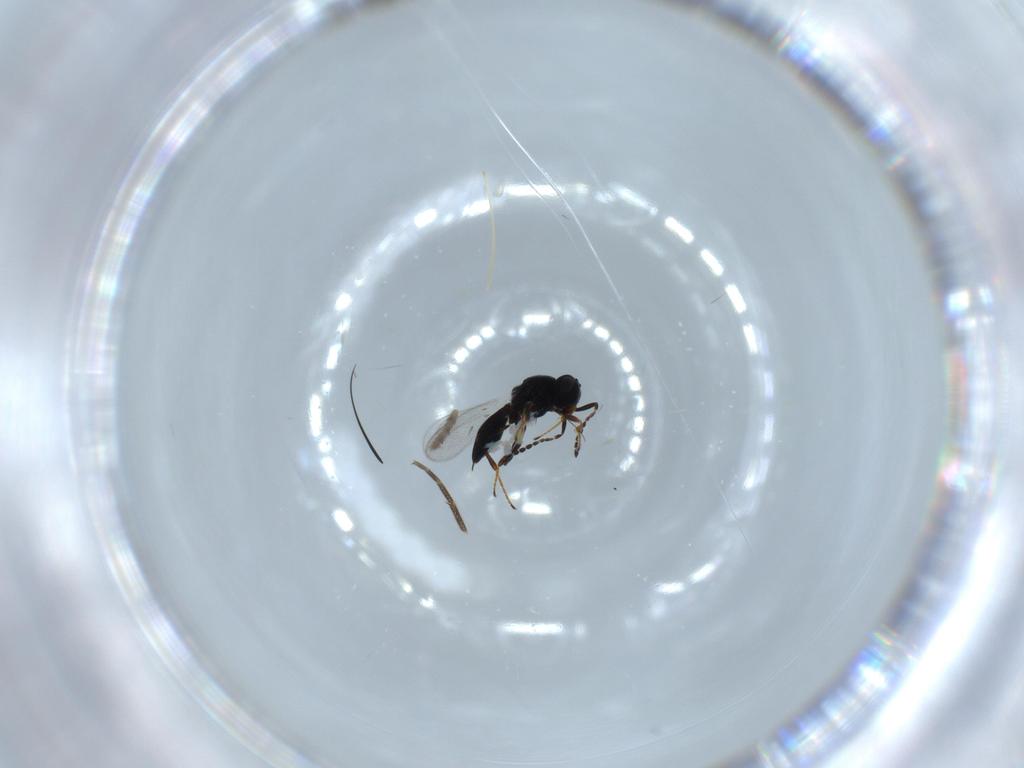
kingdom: Animalia
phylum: Arthropoda
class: Insecta
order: Hymenoptera
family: Platygastridae
